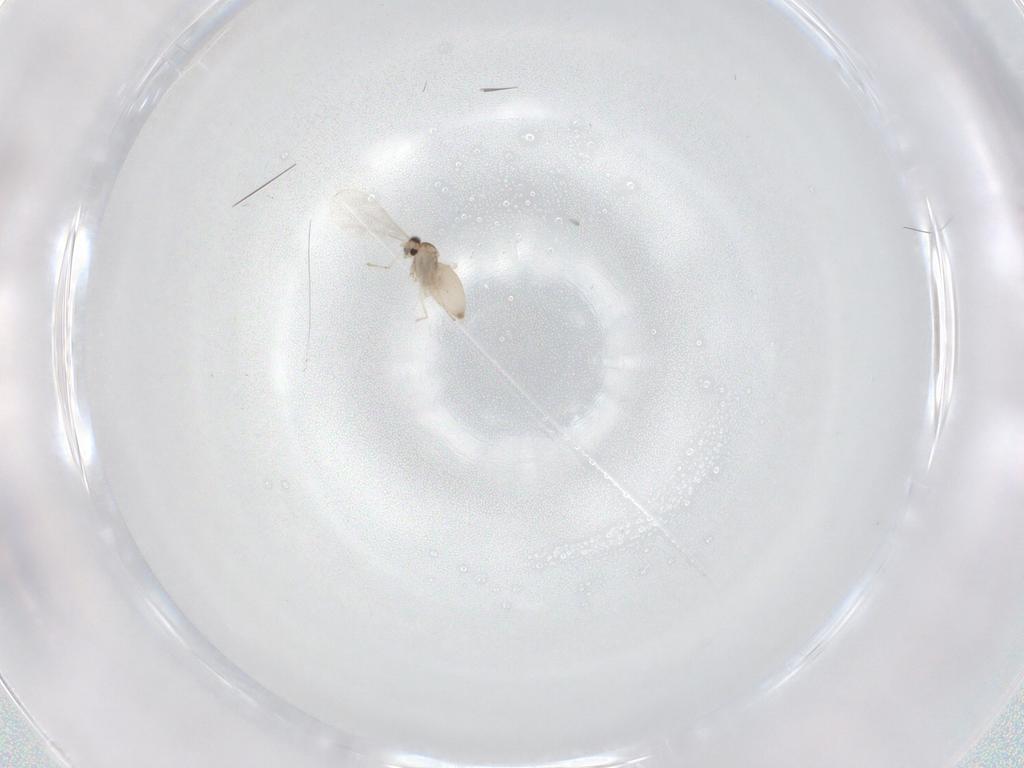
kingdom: Animalia
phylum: Arthropoda
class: Insecta
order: Diptera
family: Cecidomyiidae
